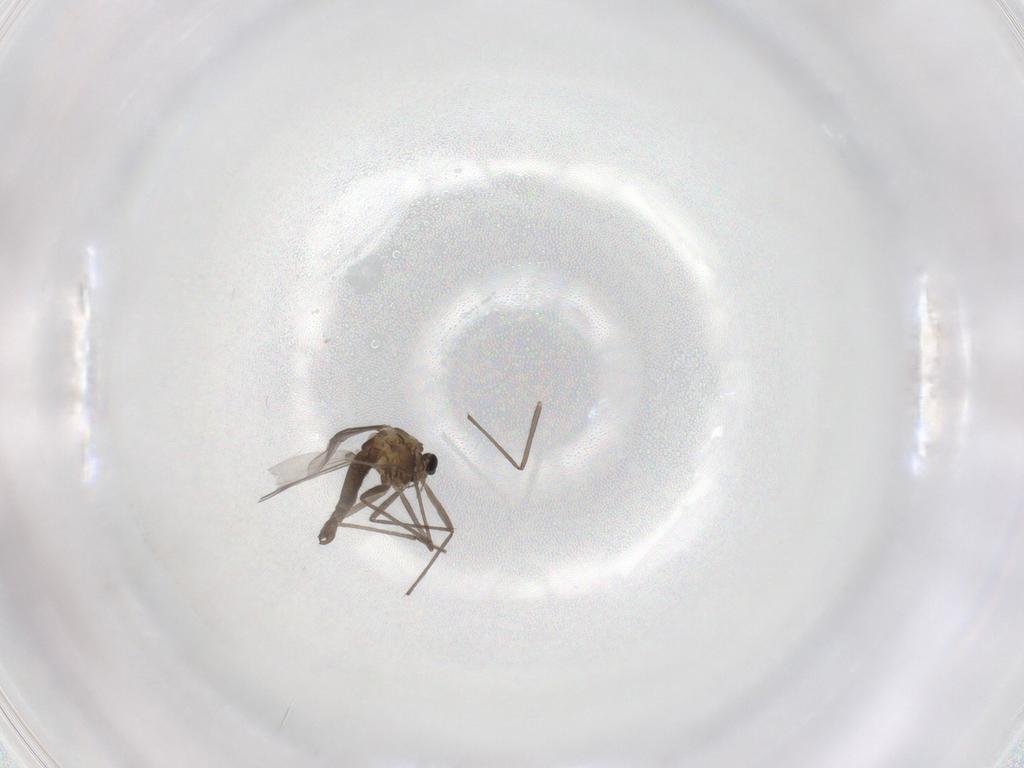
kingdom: Animalia
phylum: Arthropoda
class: Insecta
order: Diptera
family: Chironomidae
